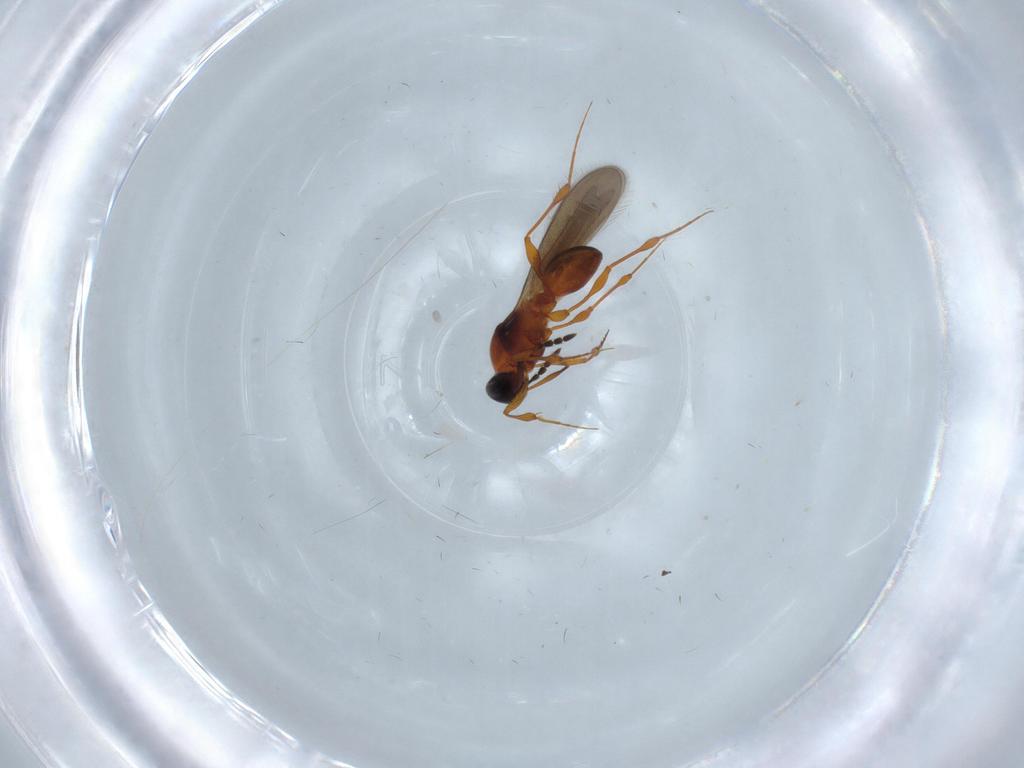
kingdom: Animalia
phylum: Arthropoda
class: Insecta
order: Hymenoptera
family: Platygastridae
